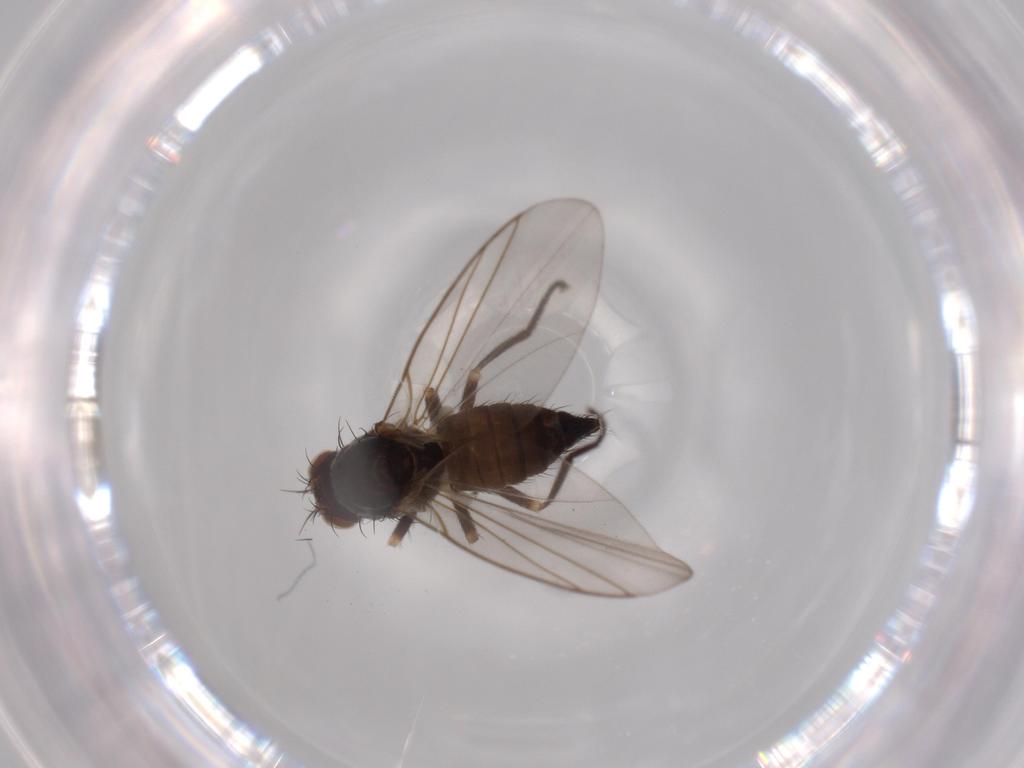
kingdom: Animalia
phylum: Arthropoda
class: Insecta
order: Diptera
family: Agromyzidae
